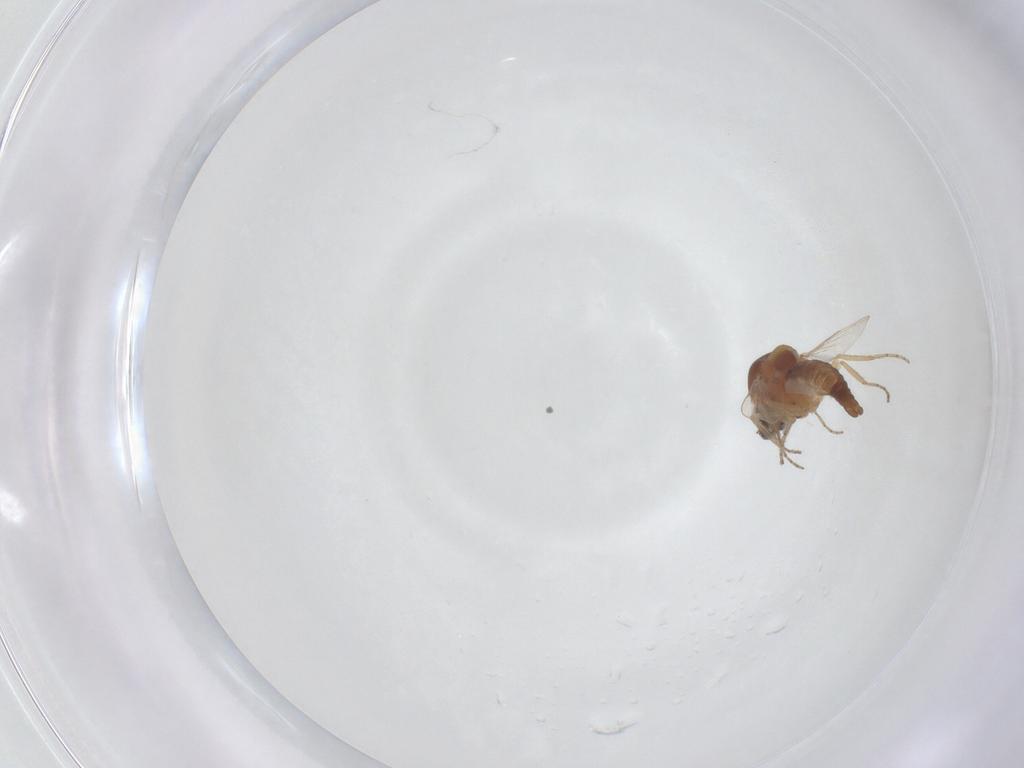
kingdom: Animalia
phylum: Arthropoda
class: Insecta
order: Diptera
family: Ceratopogonidae
